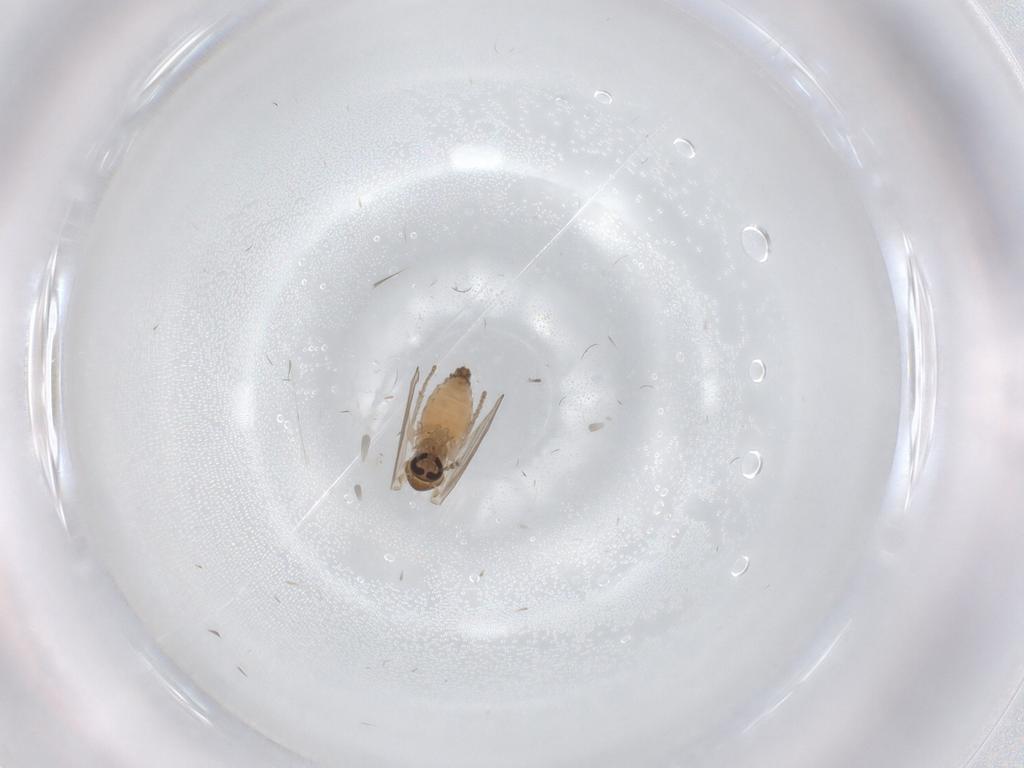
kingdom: Animalia
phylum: Arthropoda
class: Insecta
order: Diptera
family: Psychodidae
